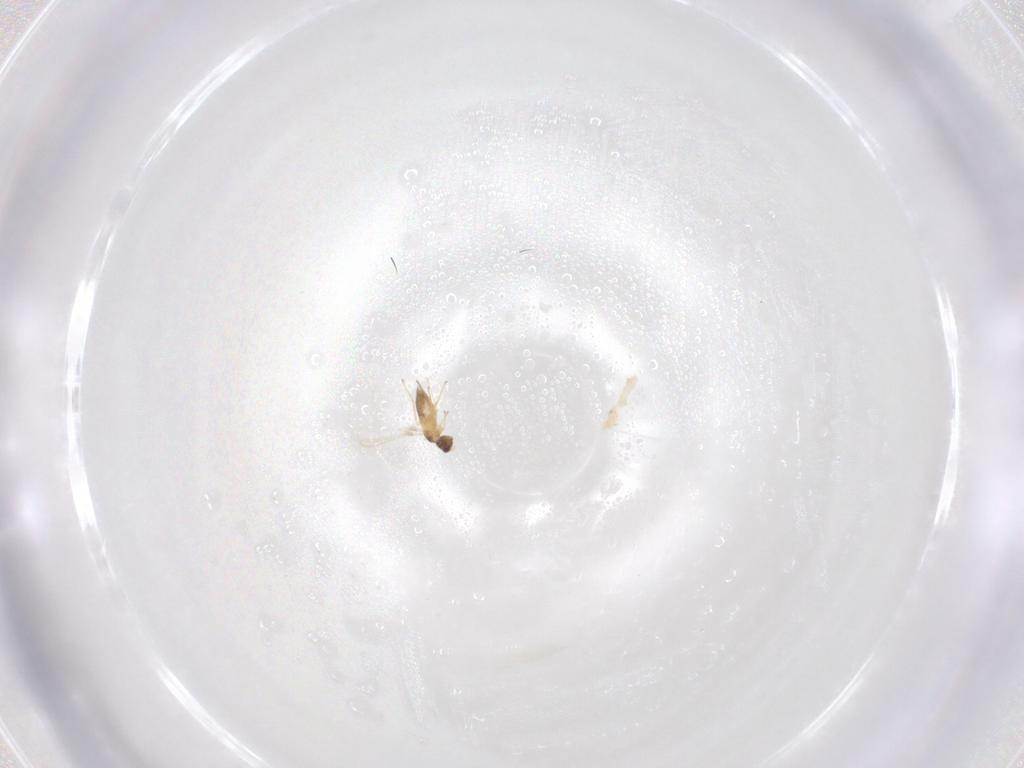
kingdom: Animalia
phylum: Arthropoda
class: Insecta
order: Hymenoptera
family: Mymaridae
